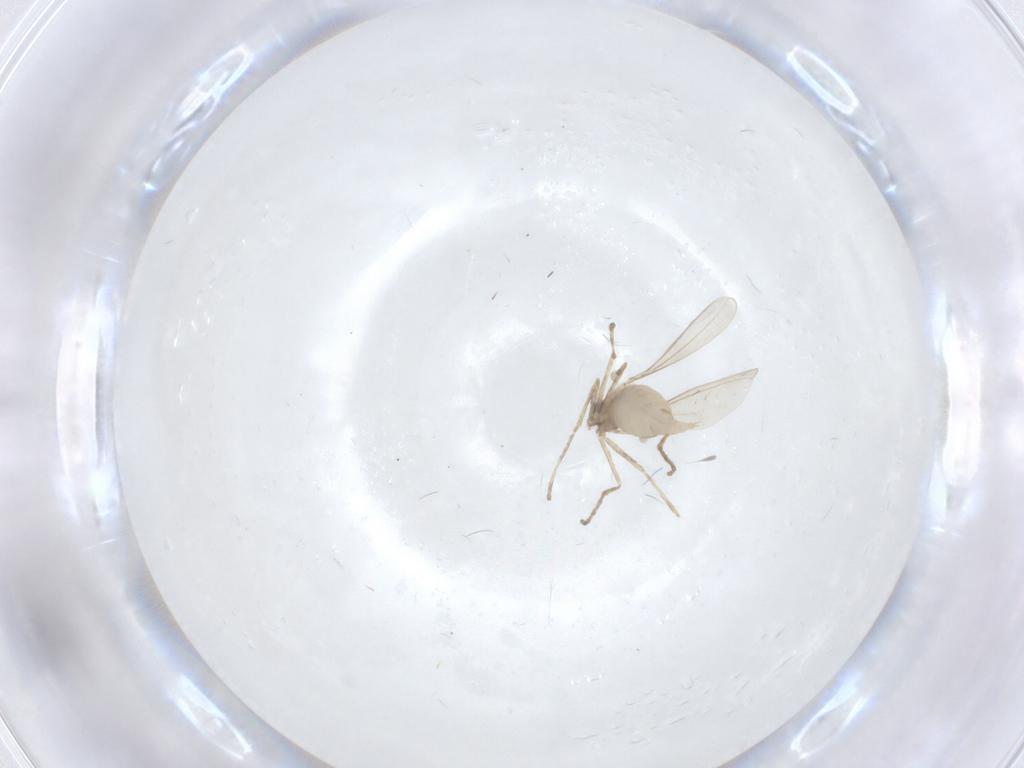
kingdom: Animalia
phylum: Arthropoda
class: Insecta
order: Diptera
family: Cecidomyiidae
